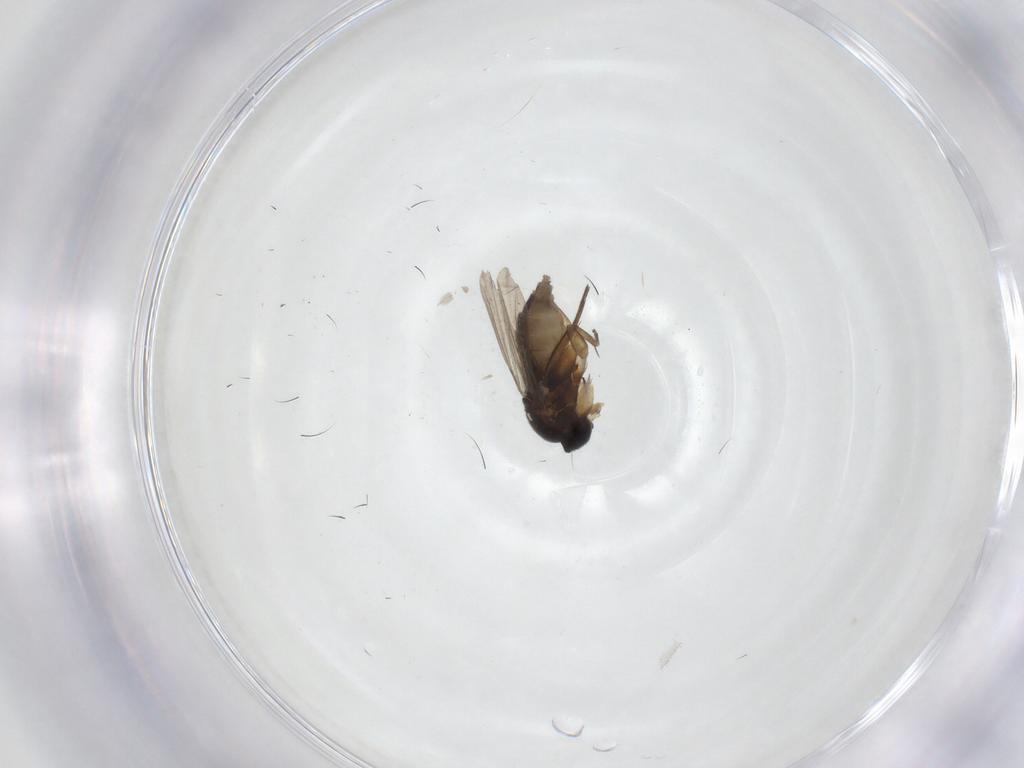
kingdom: Animalia
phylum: Arthropoda
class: Insecta
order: Diptera
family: Phoridae
